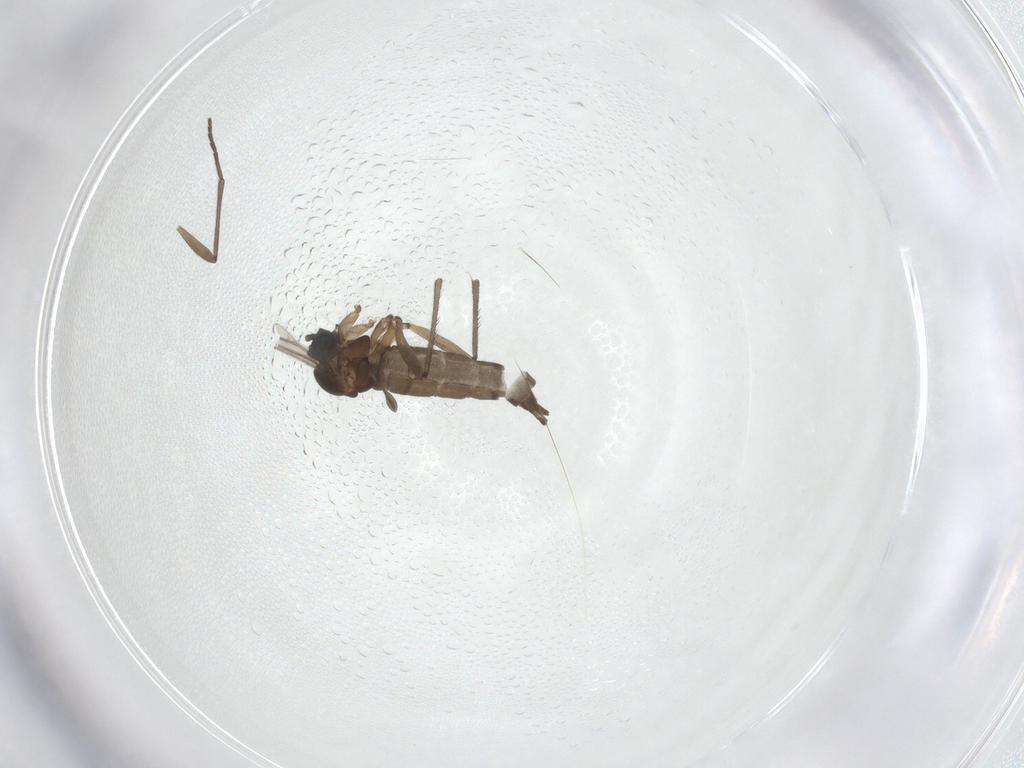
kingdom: Animalia
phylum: Arthropoda
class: Insecta
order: Diptera
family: Sciaridae
